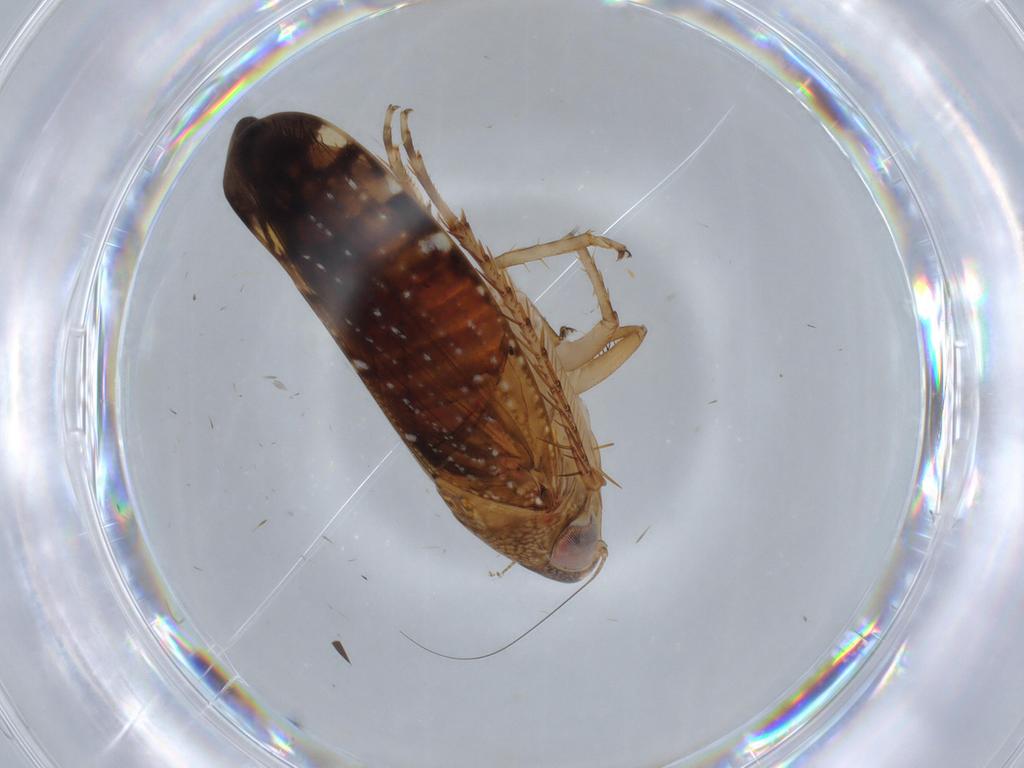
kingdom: Animalia
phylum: Arthropoda
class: Insecta
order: Hemiptera
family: Cicadellidae
